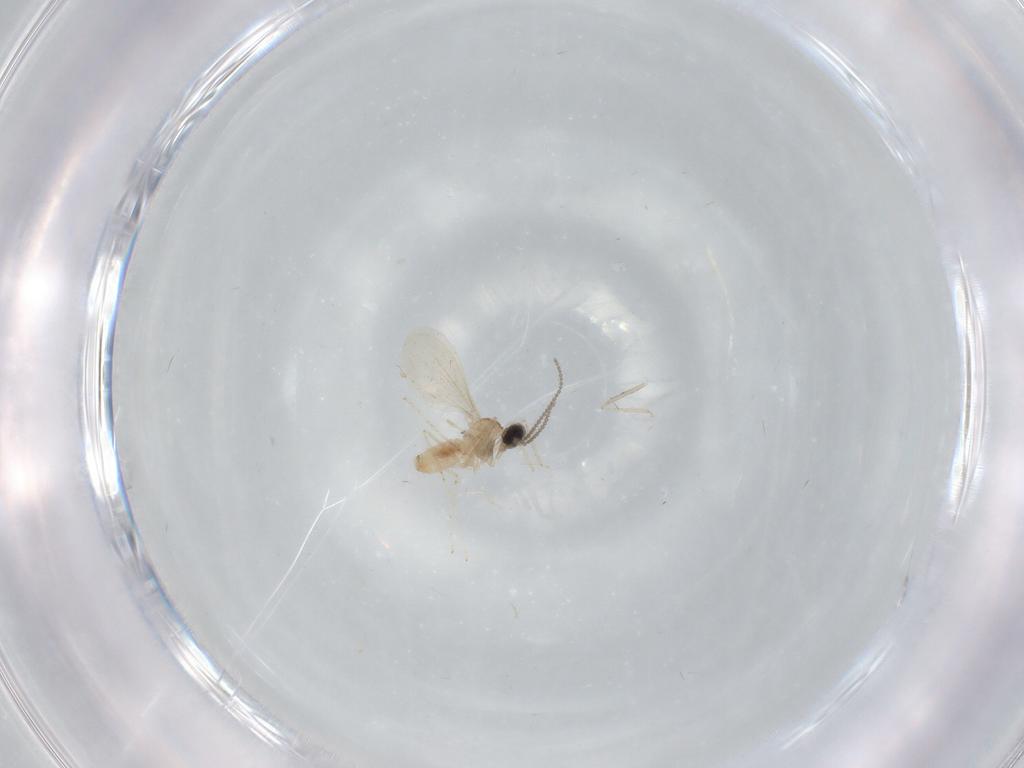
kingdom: Animalia
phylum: Arthropoda
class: Insecta
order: Diptera
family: Cecidomyiidae
